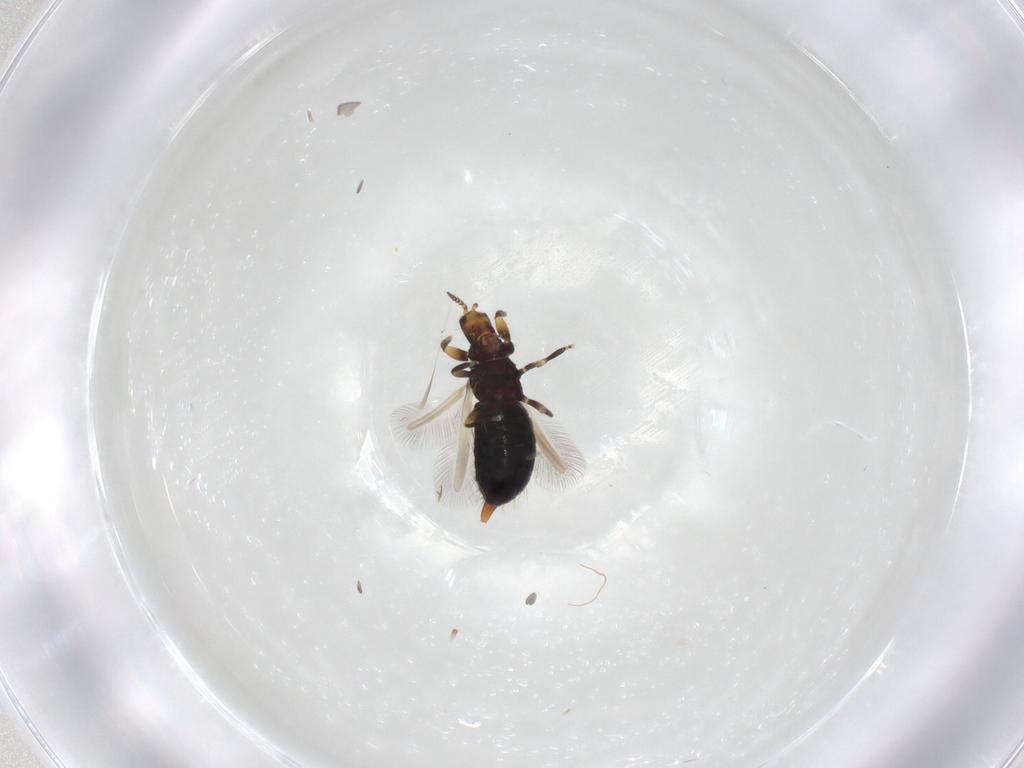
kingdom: Animalia
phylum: Arthropoda
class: Insecta
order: Thysanoptera
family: Phlaeothripidae
